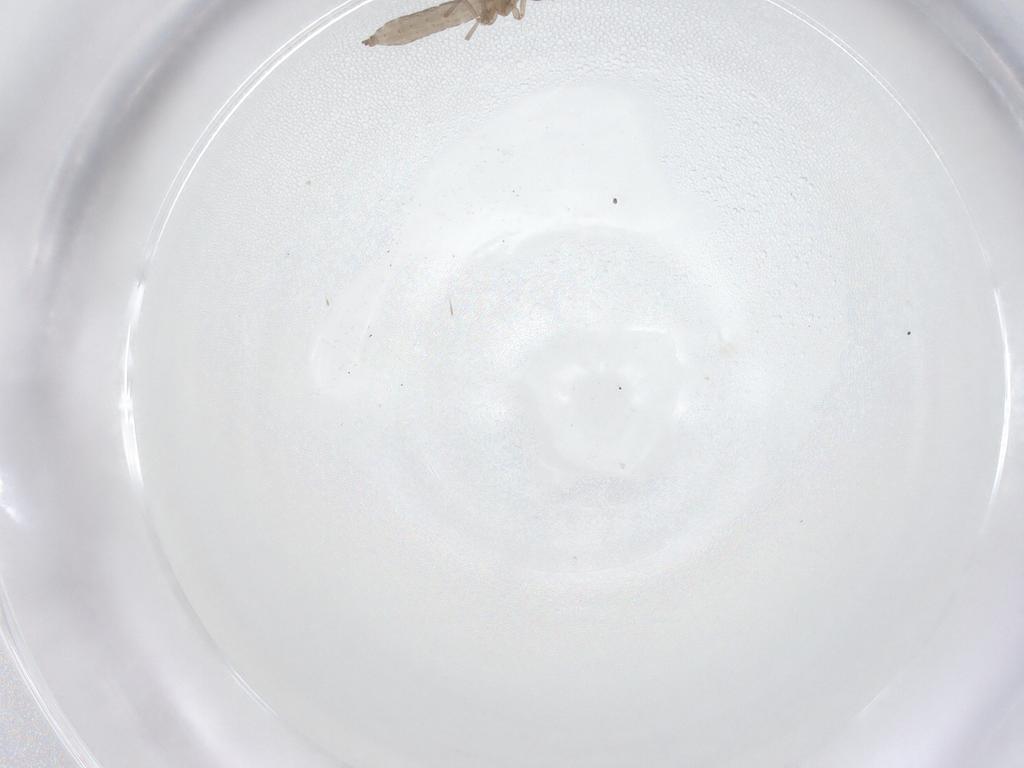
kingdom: Animalia
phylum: Arthropoda
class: Insecta
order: Diptera
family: Cecidomyiidae
